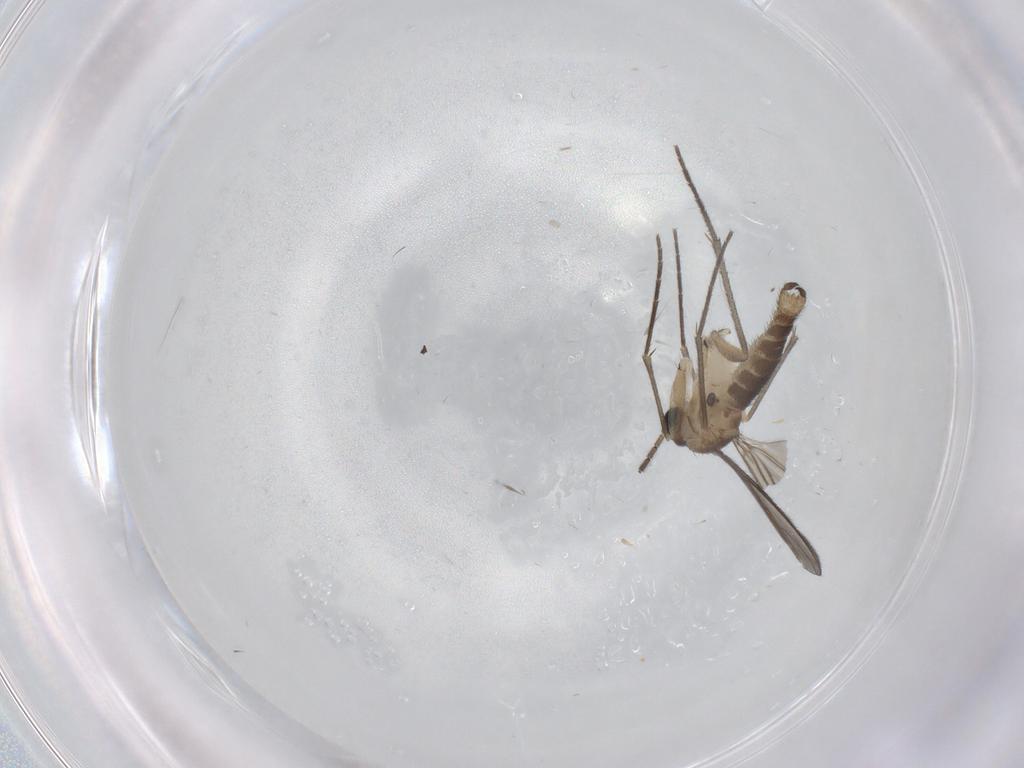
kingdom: Animalia
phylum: Arthropoda
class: Insecta
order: Diptera
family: Sciaridae
